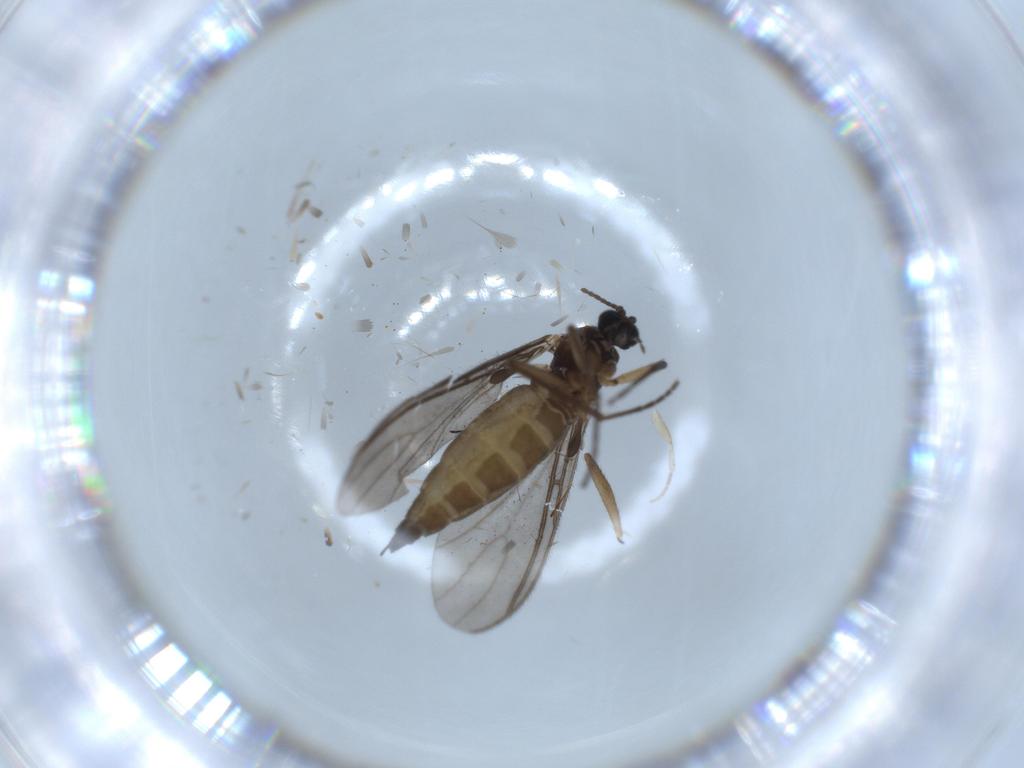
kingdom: Animalia
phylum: Arthropoda
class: Insecta
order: Diptera
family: Sciaridae
